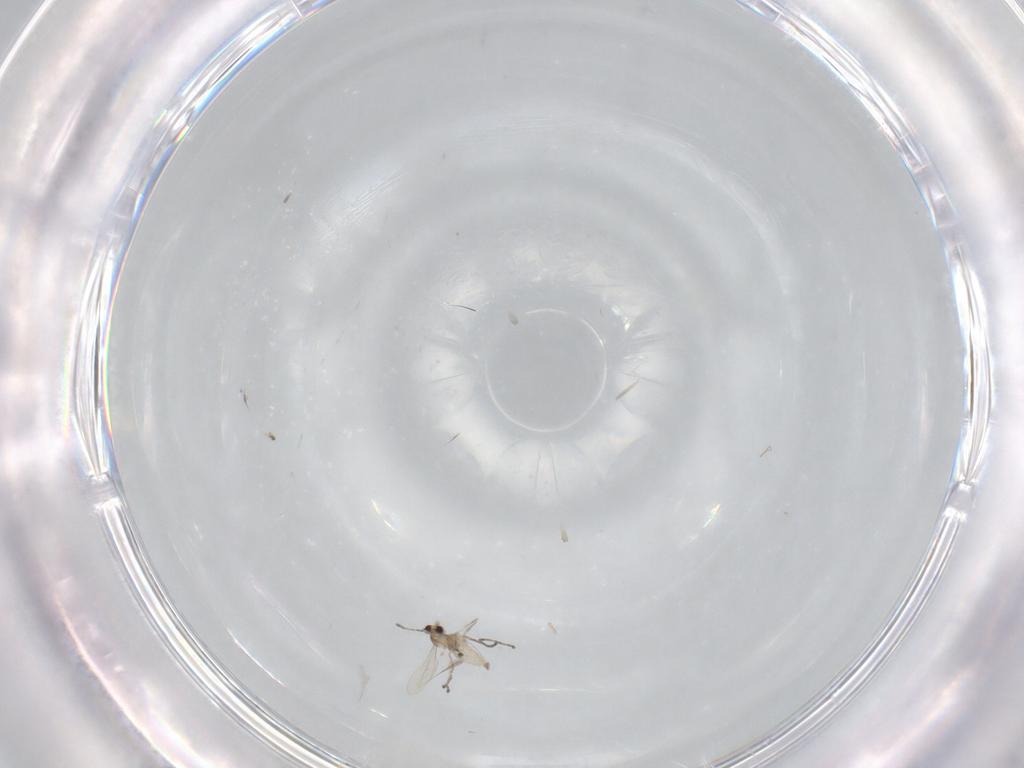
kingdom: Animalia
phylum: Arthropoda
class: Insecta
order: Diptera
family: Cecidomyiidae
